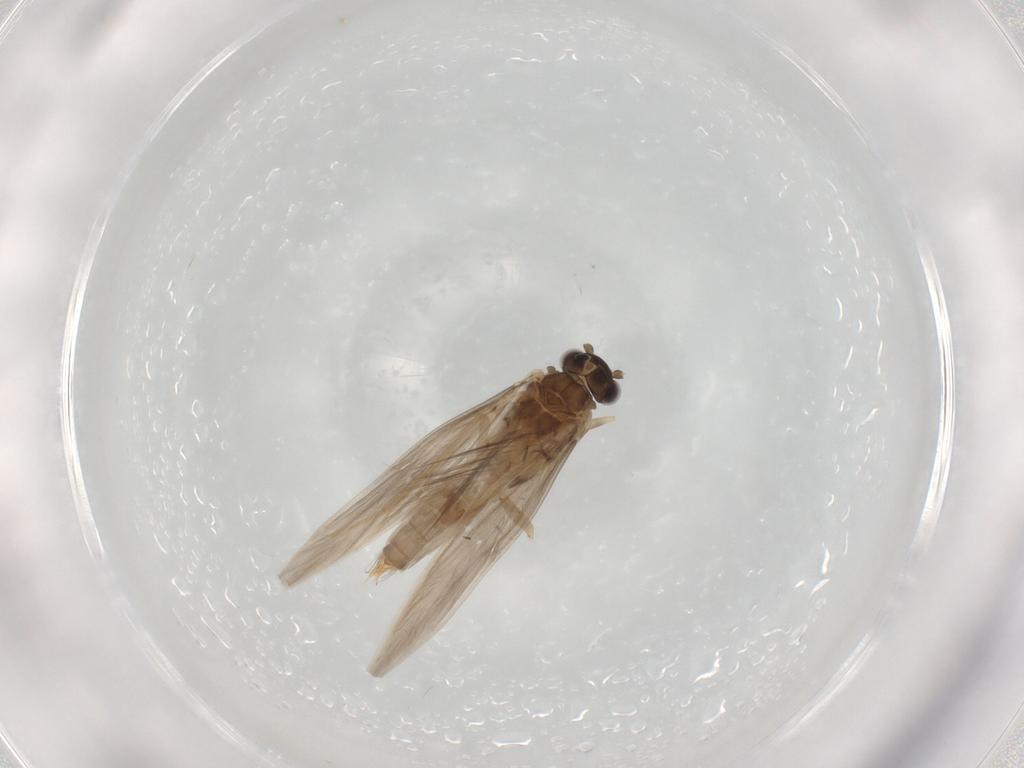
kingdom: Animalia
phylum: Arthropoda
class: Insecta
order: Trichoptera
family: Hydroptilidae
